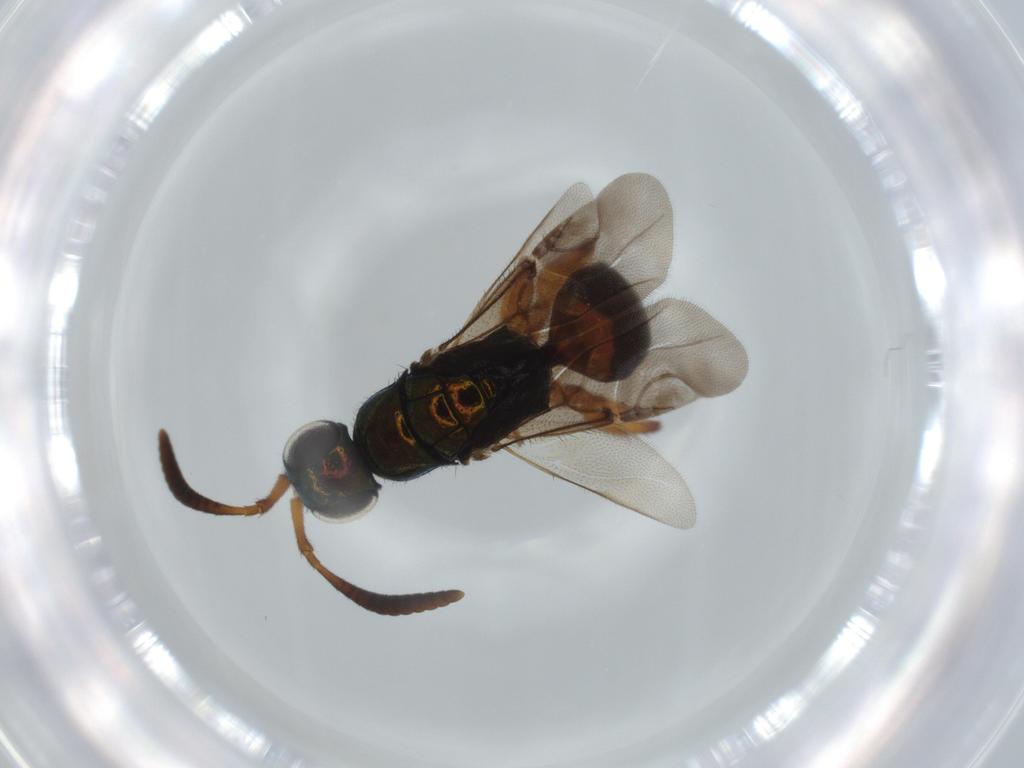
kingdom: Animalia
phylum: Arthropoda
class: Insecta
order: Hymenoptera
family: Chrysididae
